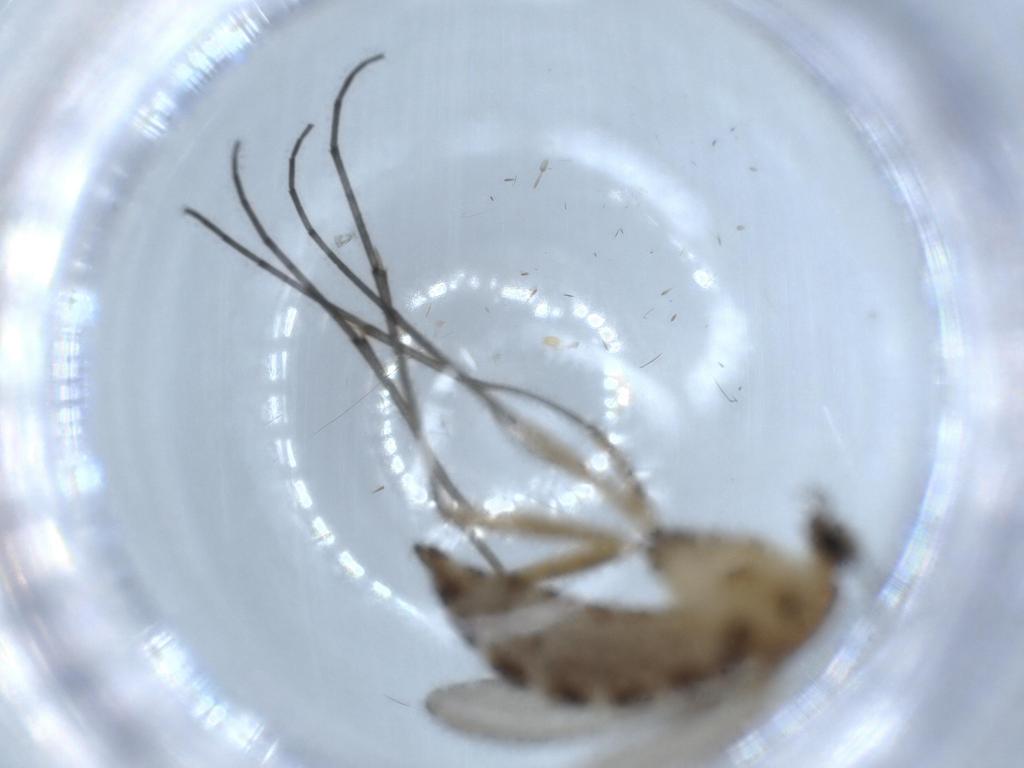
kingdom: Animalia
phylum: Arthropoda
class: Insecta
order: Diptera
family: Sciaridae
